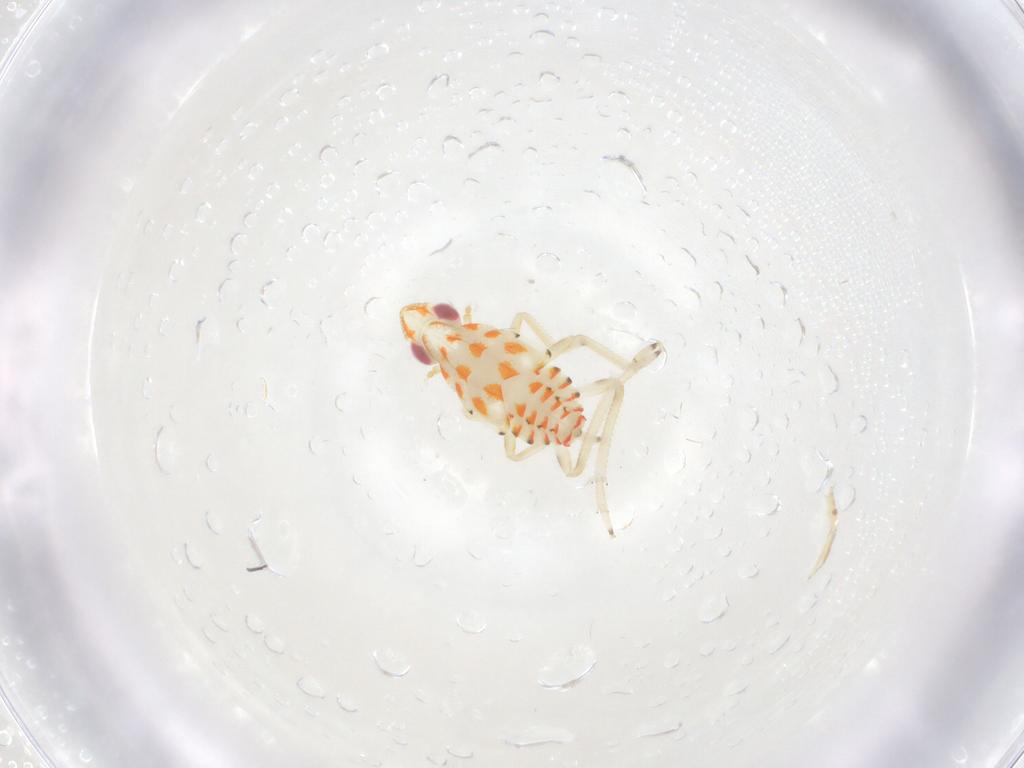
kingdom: Animalia
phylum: Arthropoda
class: Insecta
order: Hemiptera
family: Tropiduchidae
